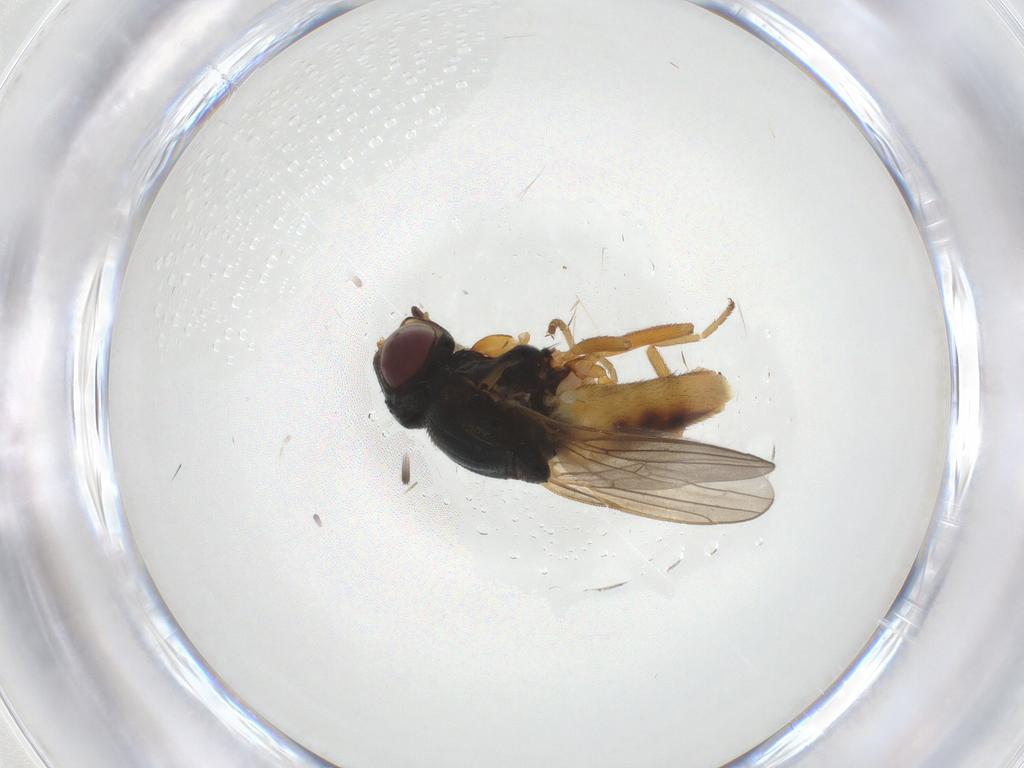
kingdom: Animalia
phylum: Arthropoda
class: Insecta
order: Diptera
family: Chloropidae
